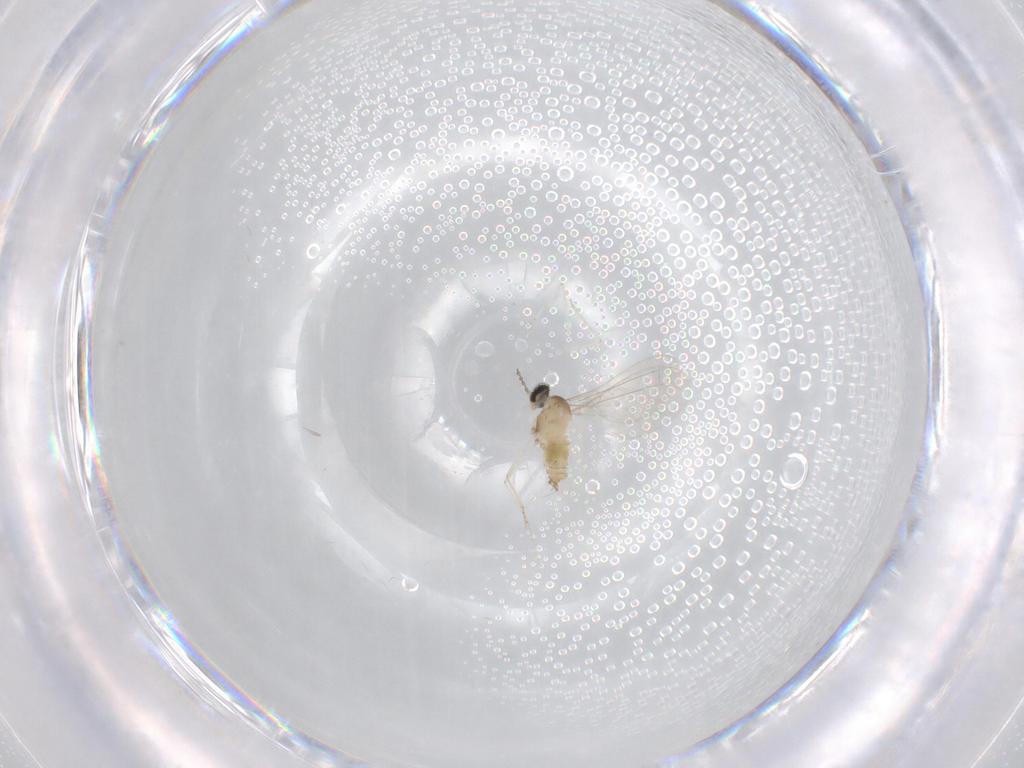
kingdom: Animalia
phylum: Arthropoda
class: Insecta
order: Diptera
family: Cecidomyiidae
